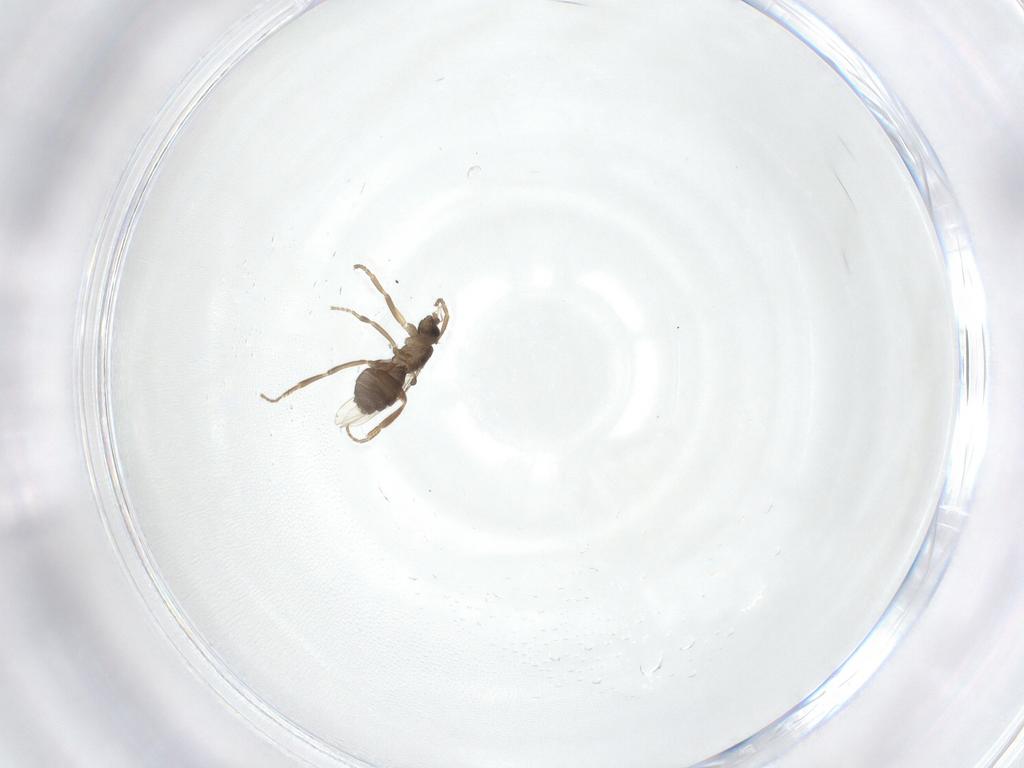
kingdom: Animalia
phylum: Arthropoda
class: Insecta
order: Diptera
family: Phoridae
